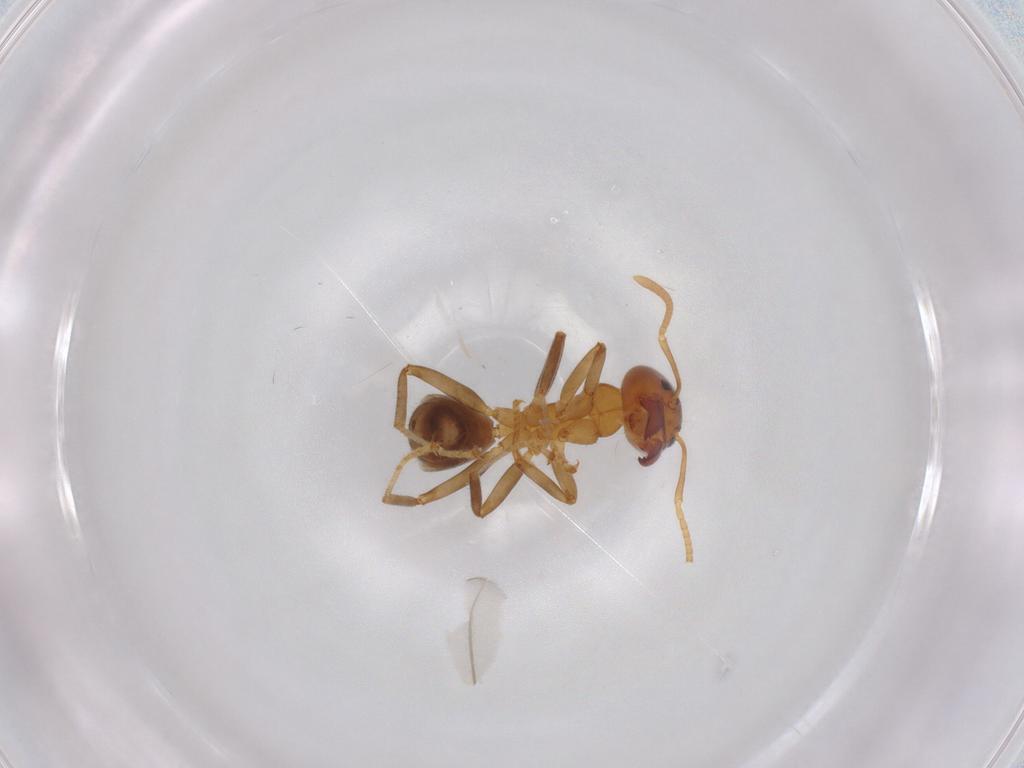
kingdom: Animalia
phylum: Arthropoda
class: Insecta
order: Hymenoptera
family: Formicidae
